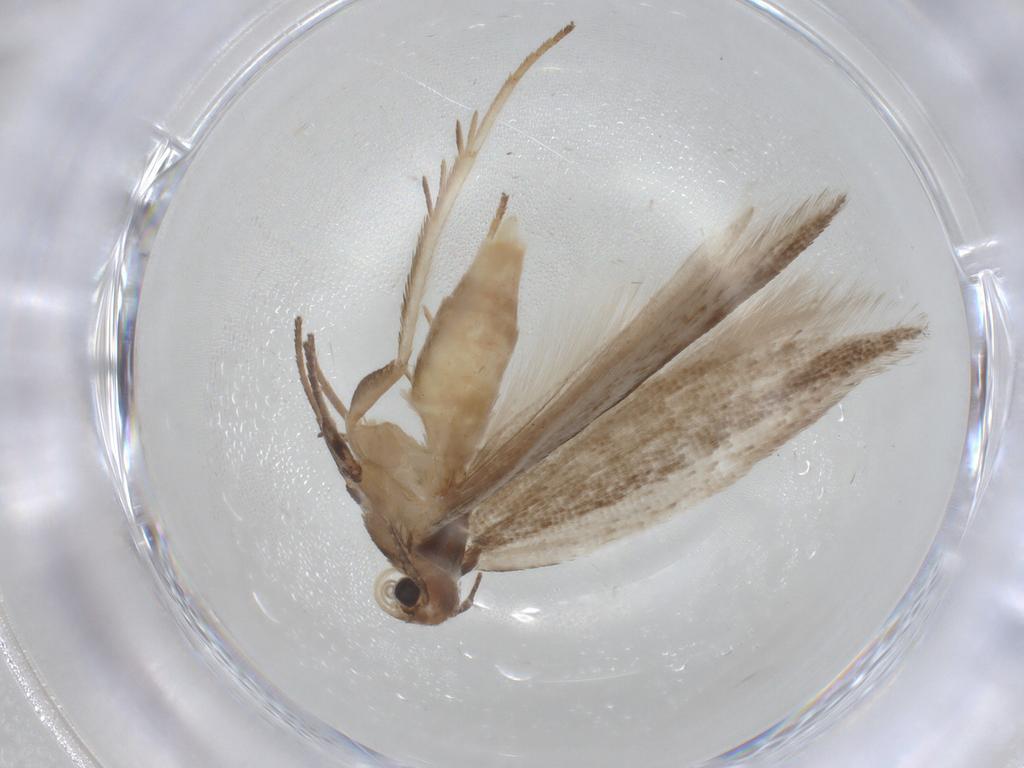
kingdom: Animalia
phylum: Arthropoda
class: Insecta
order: Lepidoptera
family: Gelechiidae
